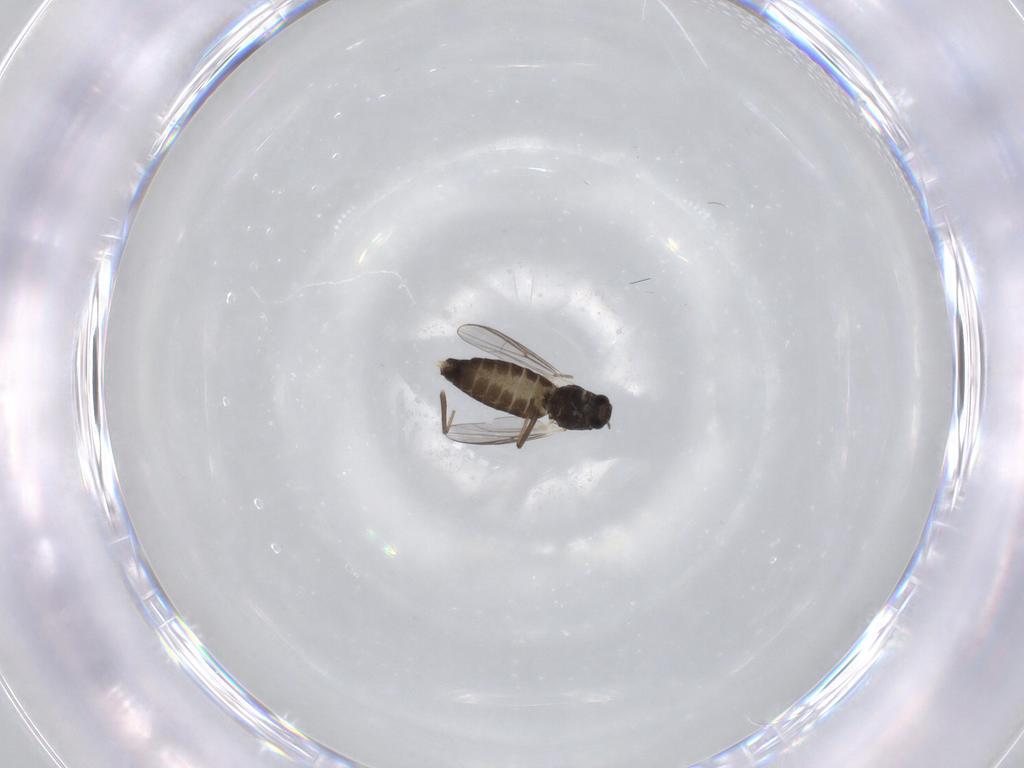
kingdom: Animalia
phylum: Arthropoda
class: Insecta
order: Diptera
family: Chironomidae
